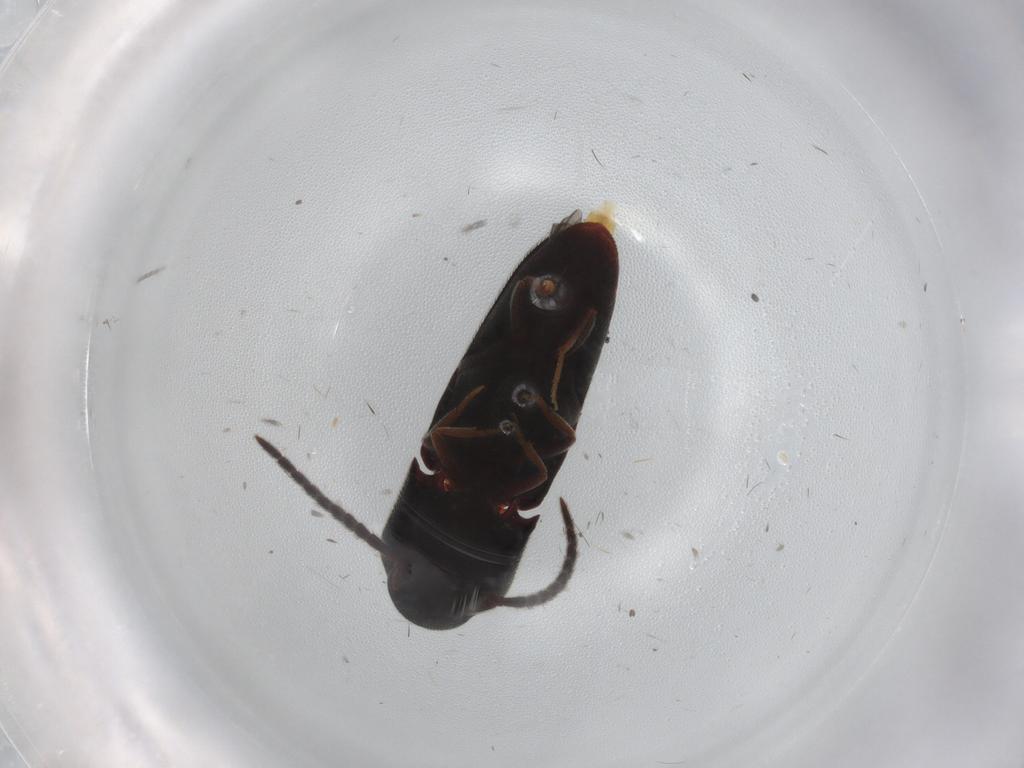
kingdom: Animalia
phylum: Arthropoda
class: Insecta
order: Coleoptera
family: Eucnemidae
